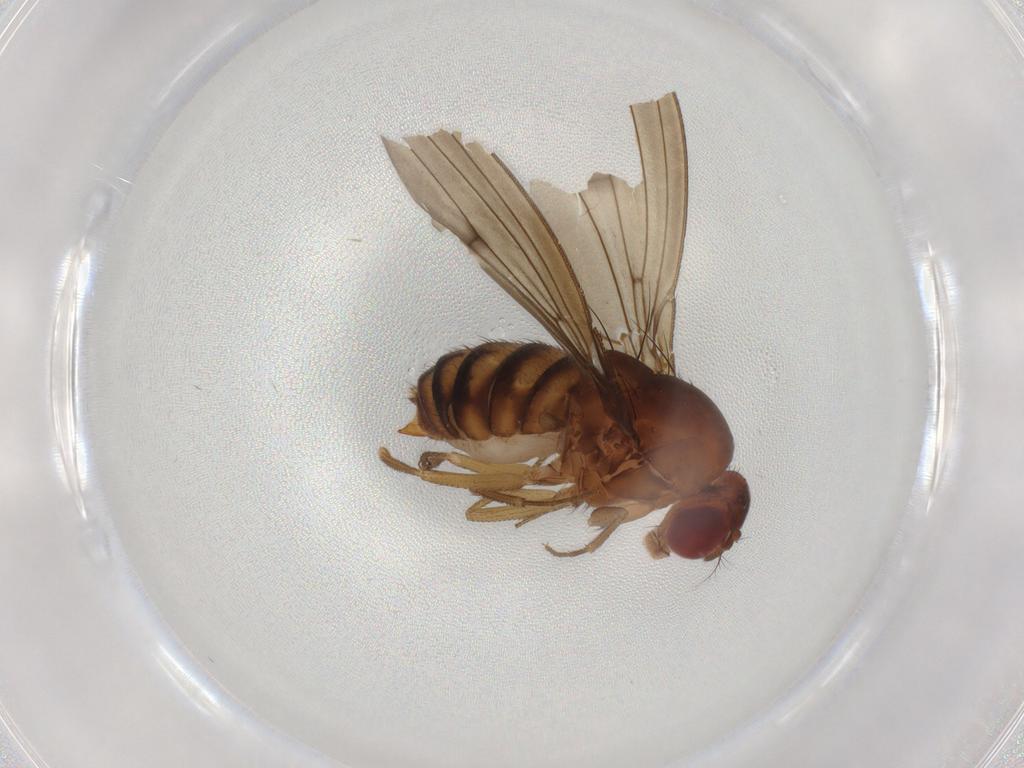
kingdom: Animalia
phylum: Arthropoda
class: Insecta
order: Diptera
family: Drosophilidae
